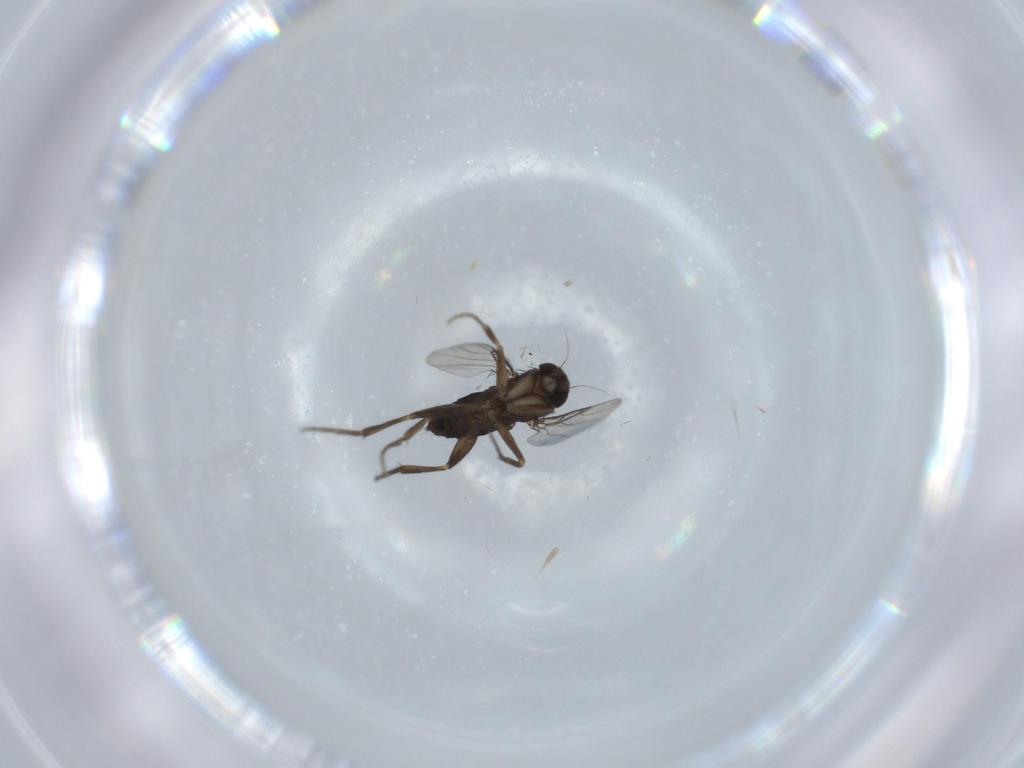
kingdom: Animalia
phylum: Arthropoda
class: Insecta
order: Diptera
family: Phoridae
